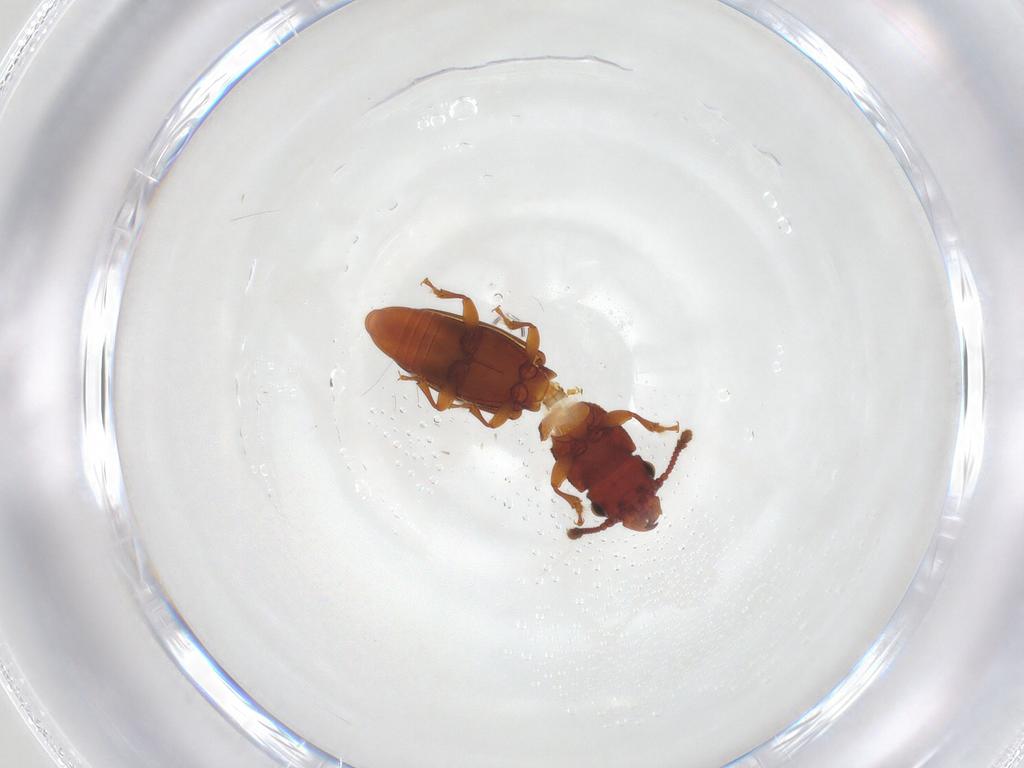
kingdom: Animalia
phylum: Arthropoda
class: Insecta
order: Coleoptera
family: Monotomidae
